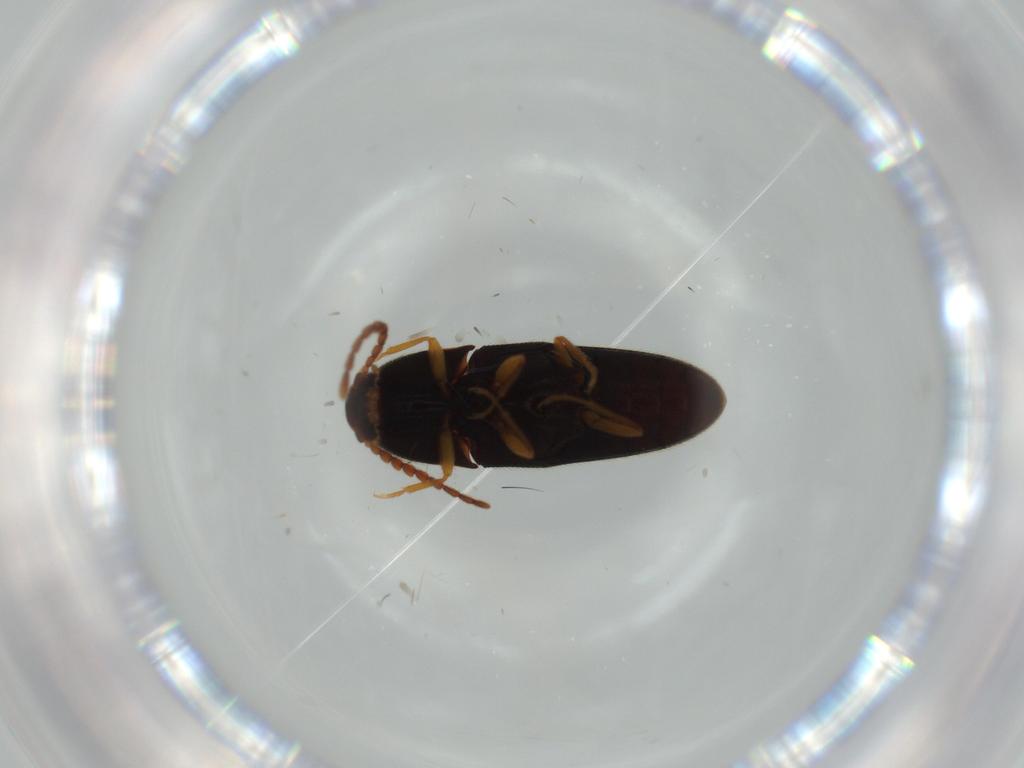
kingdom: Animalia
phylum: Arthropoda
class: Insecta
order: Coleoptera
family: Elateridae
